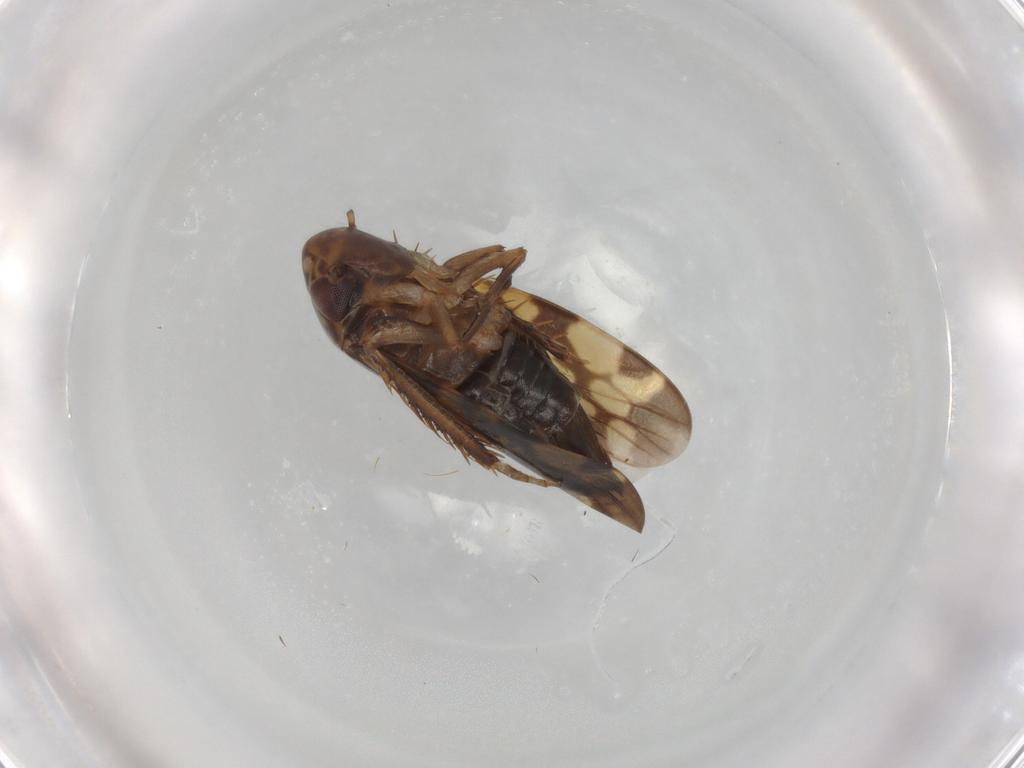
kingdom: Animalia
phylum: Arthropoda
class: Insecta
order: Hemiptera
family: Cicadellidae
